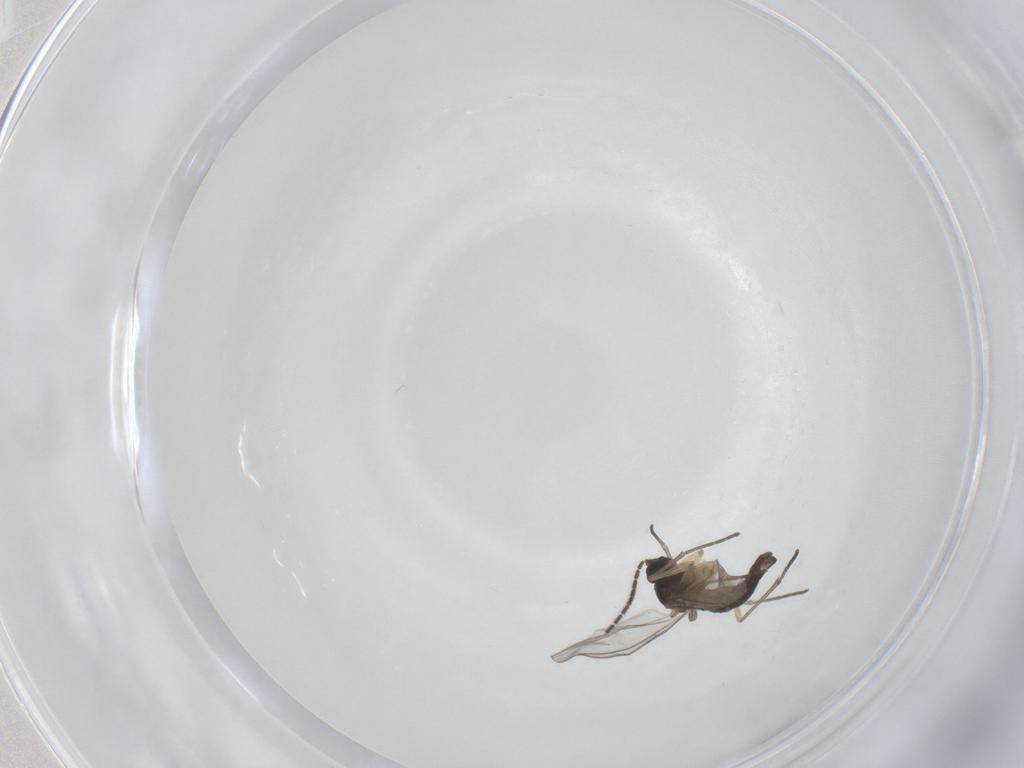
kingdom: Animalia
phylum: Arthropoda
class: Insecta
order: Diptera
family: Sciaridae
